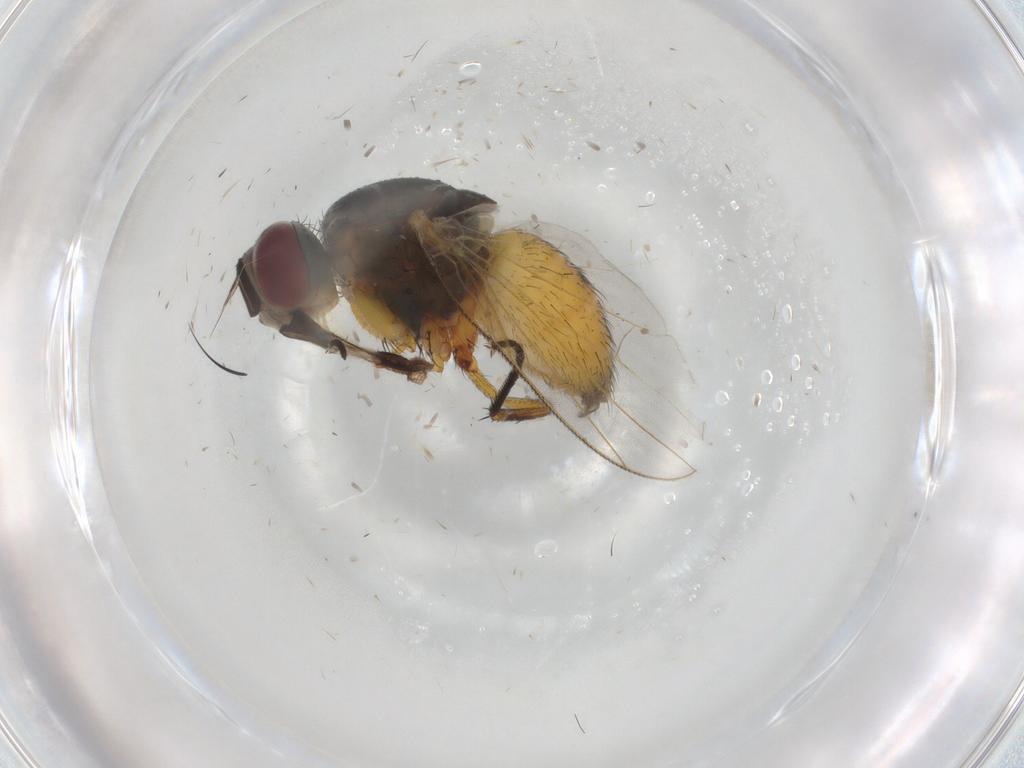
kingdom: Animalia
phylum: Arthropoda
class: Insecta
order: Diptera
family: Muscidae
